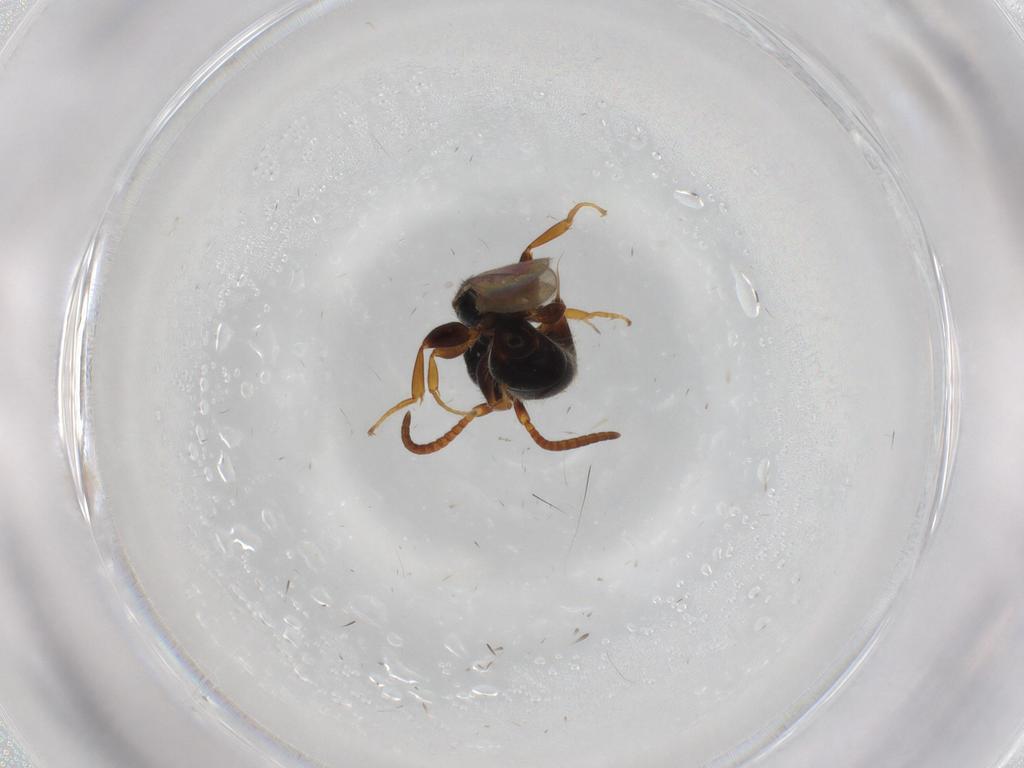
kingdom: Animalia
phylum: Arthropoda
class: Insecta
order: Hymenoptera
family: Bethylidae
